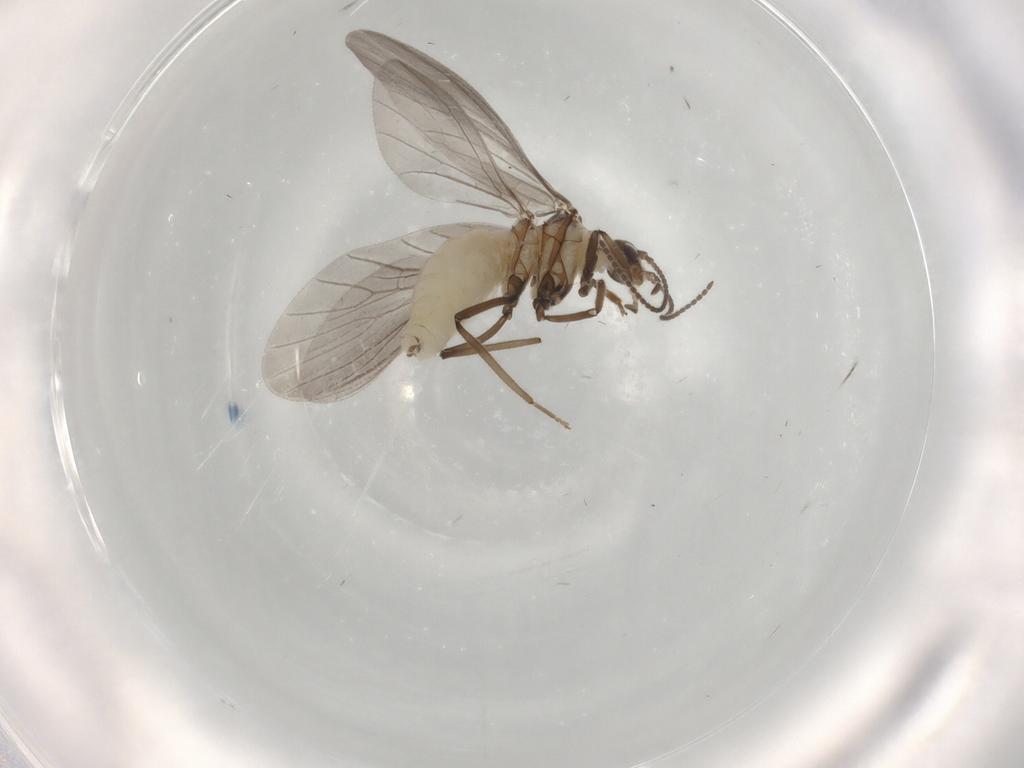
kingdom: Animalia
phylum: Arthropoda
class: Insecta
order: Neuroptera
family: Coniopterygidae
